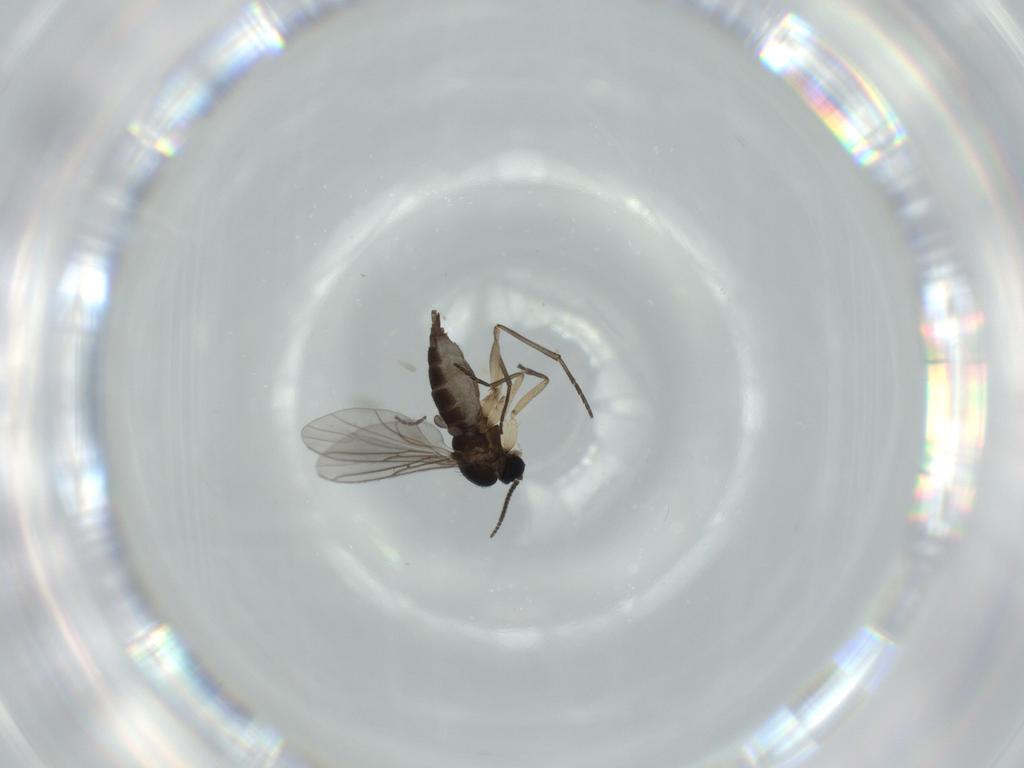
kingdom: Animalia
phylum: Arthropoda
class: Insecta
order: Diptera
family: Sciaridae
